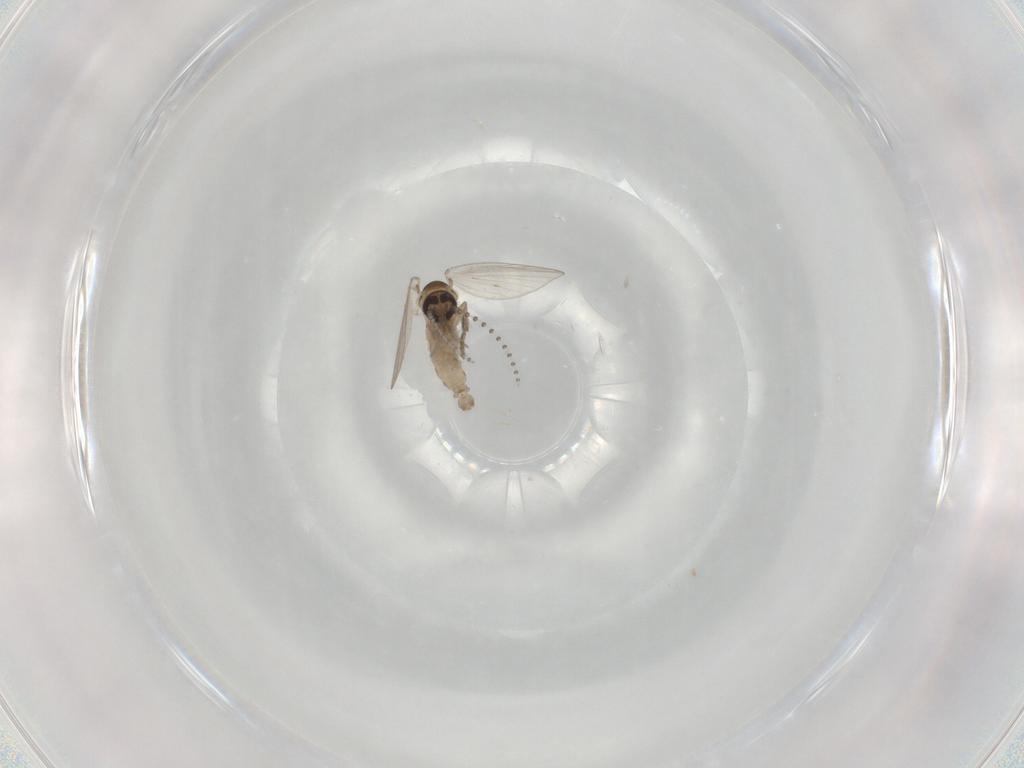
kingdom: Animalia
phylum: Arthropoda
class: Insecta
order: Diptera
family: Psychodidae
